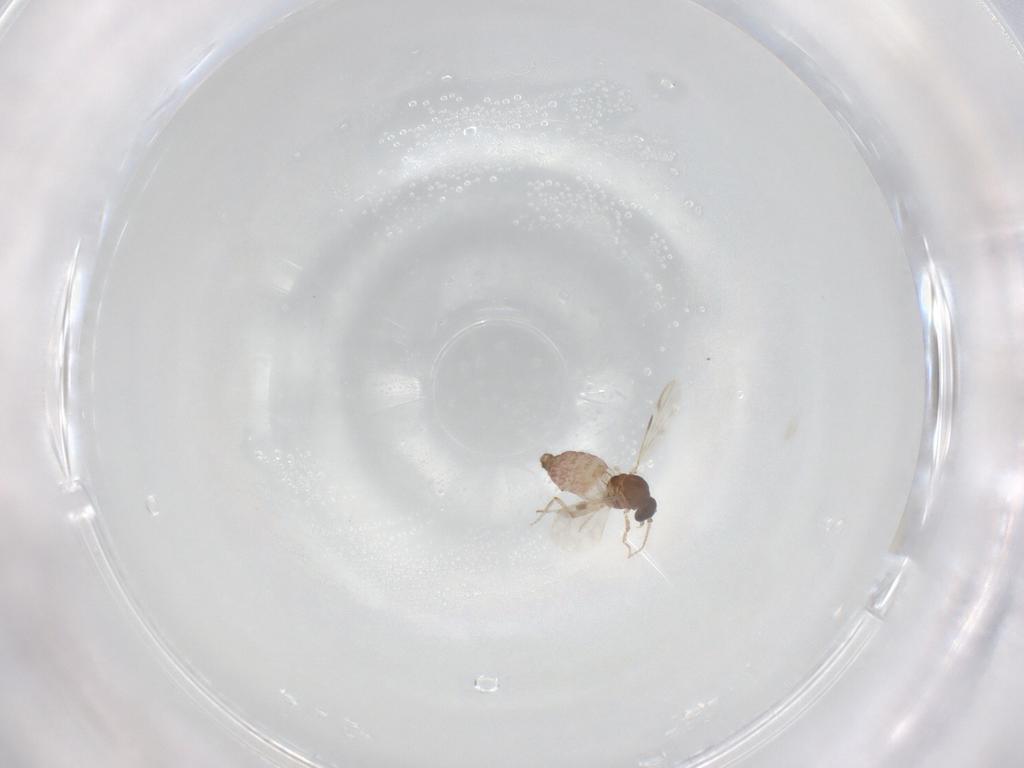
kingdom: Animalia
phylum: Arthropoda
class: Insecta
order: Diptera
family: Ceratopogonidae
